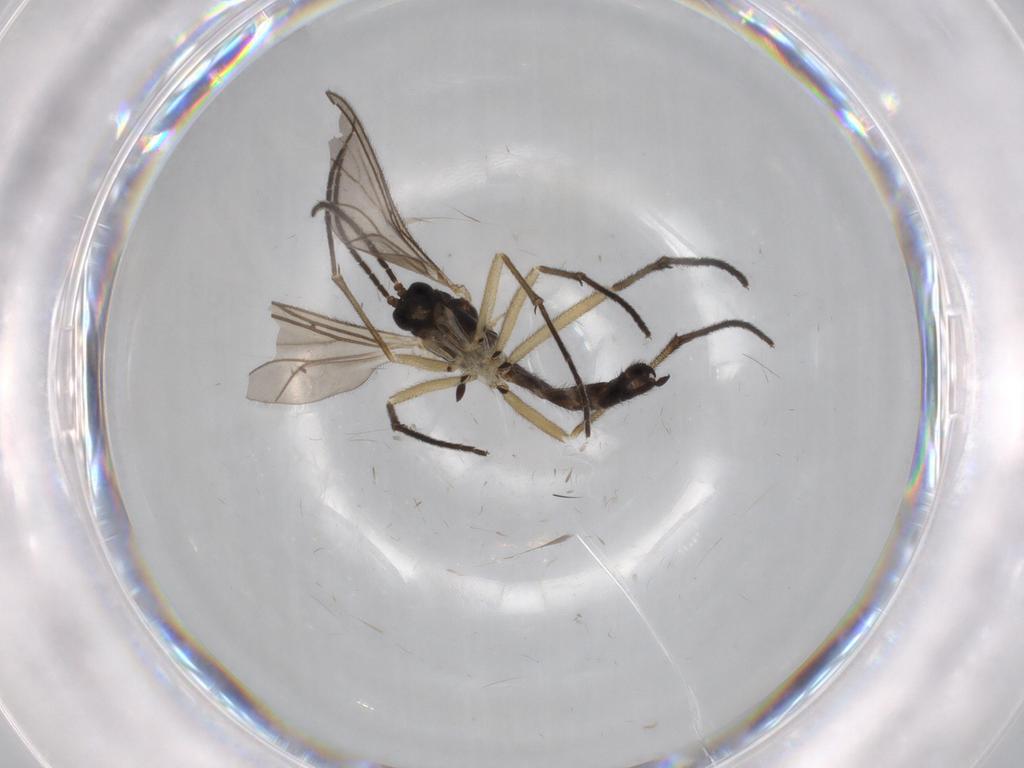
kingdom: Animalia
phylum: Arthropoda
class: Insecta
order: Diptera
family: Sciaridae
